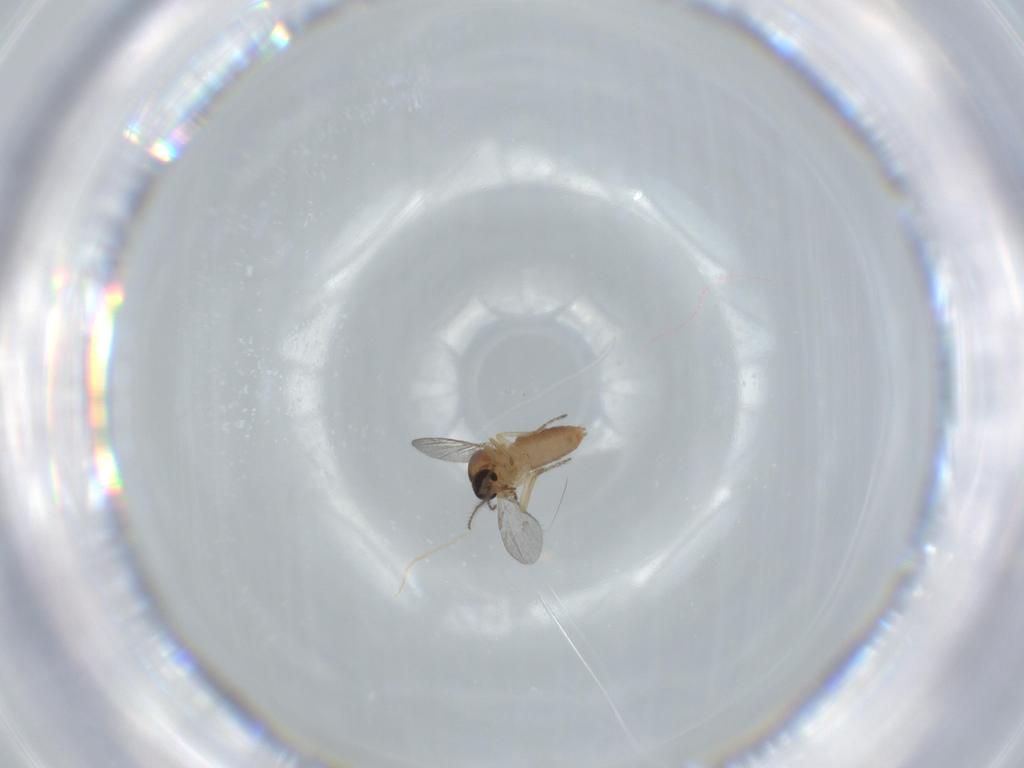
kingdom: Animalia
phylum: Arthropoda
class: Insecta
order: Diptera
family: Ceratopogonidae
